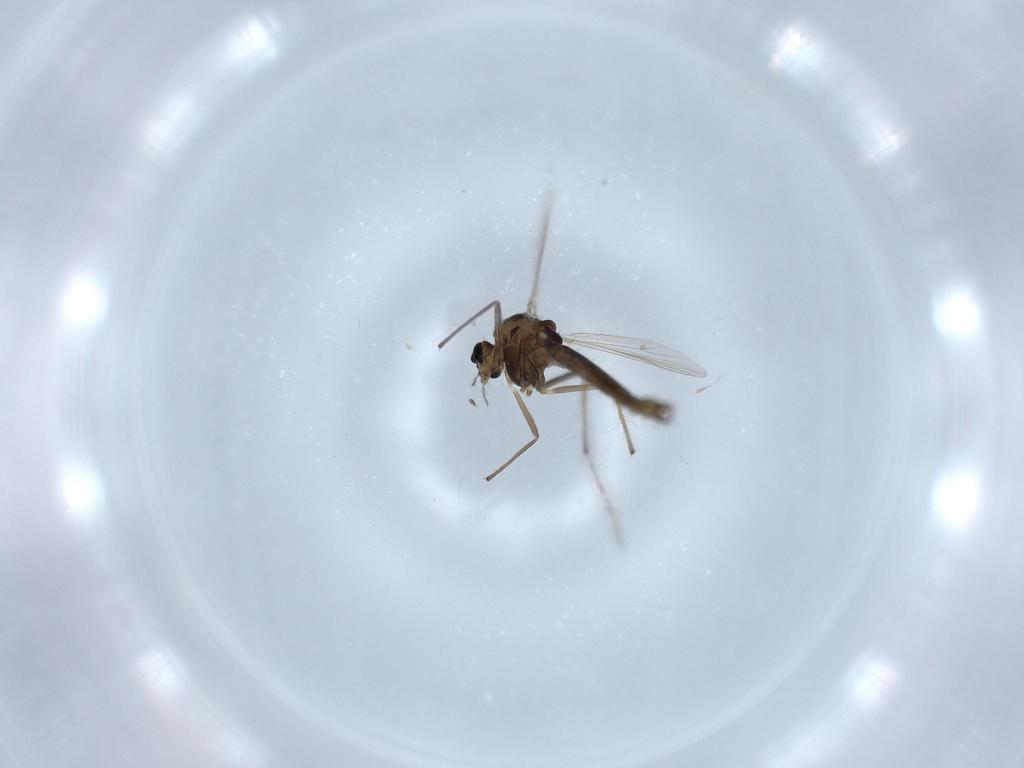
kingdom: Animalia
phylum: Arthropoda
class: Insecta
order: Diptera
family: Chironomidae
